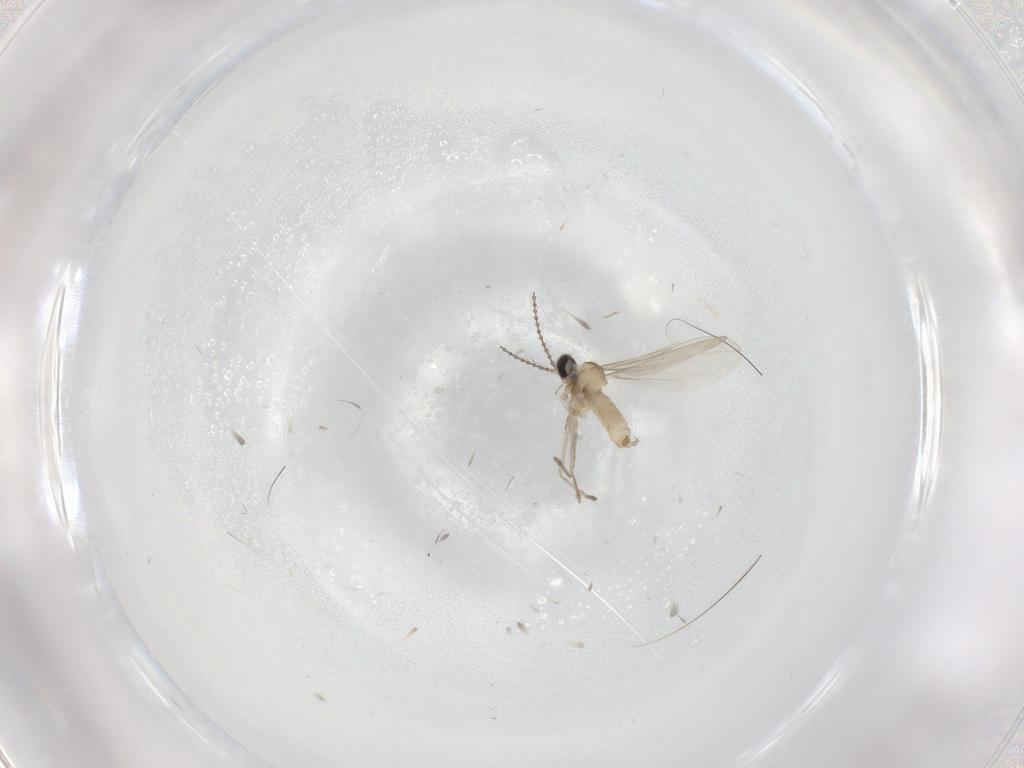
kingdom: Animalia
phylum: Arthropoda
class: Insecta
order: Diptera
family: Sciaridae
